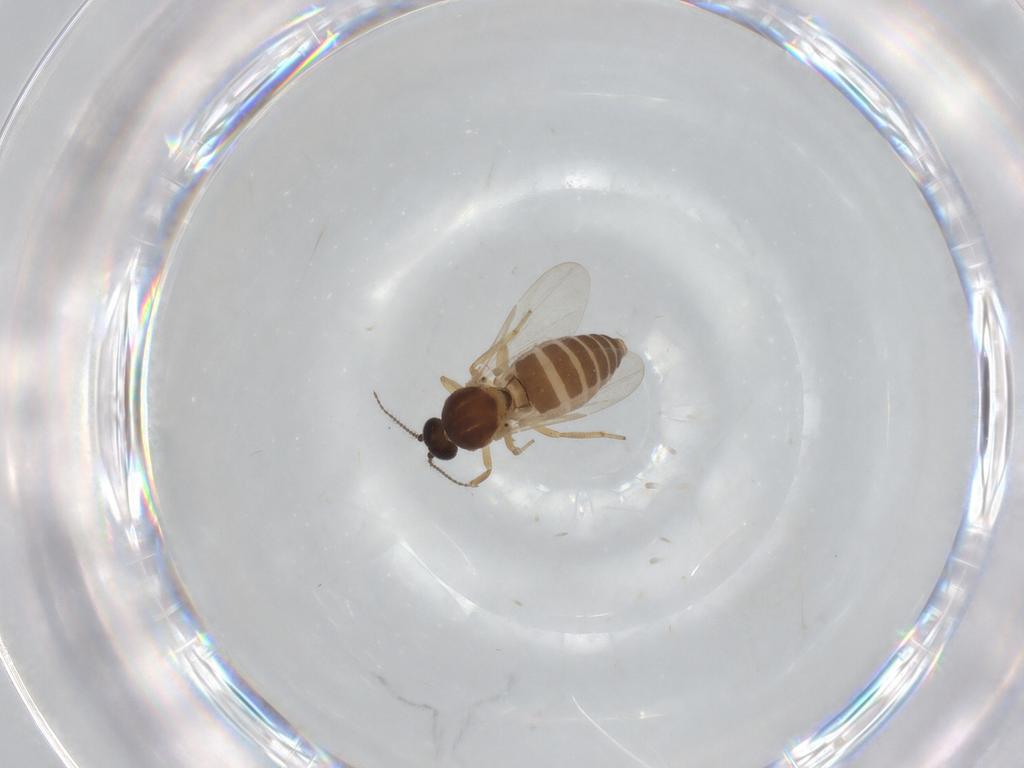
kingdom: Animalia
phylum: Arthropoda
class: Insecta
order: Diptera
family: Ceratopogonidae
